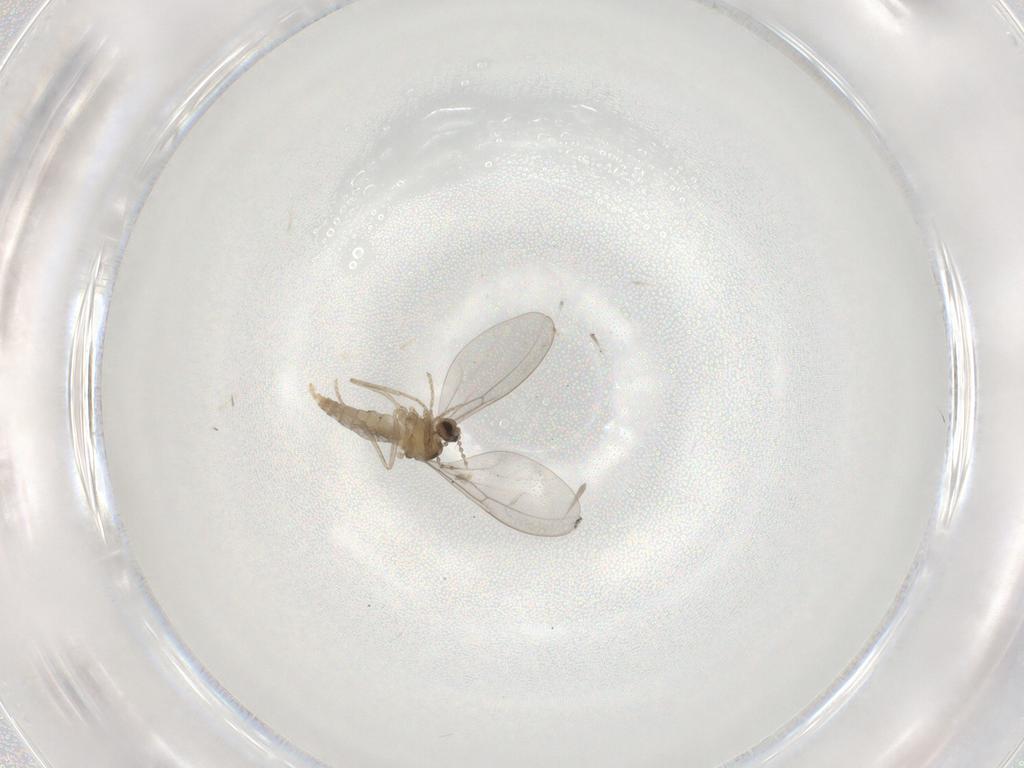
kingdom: Animalia
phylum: Arthropoda
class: Insecta
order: Diptera
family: Cecidomyiidae
